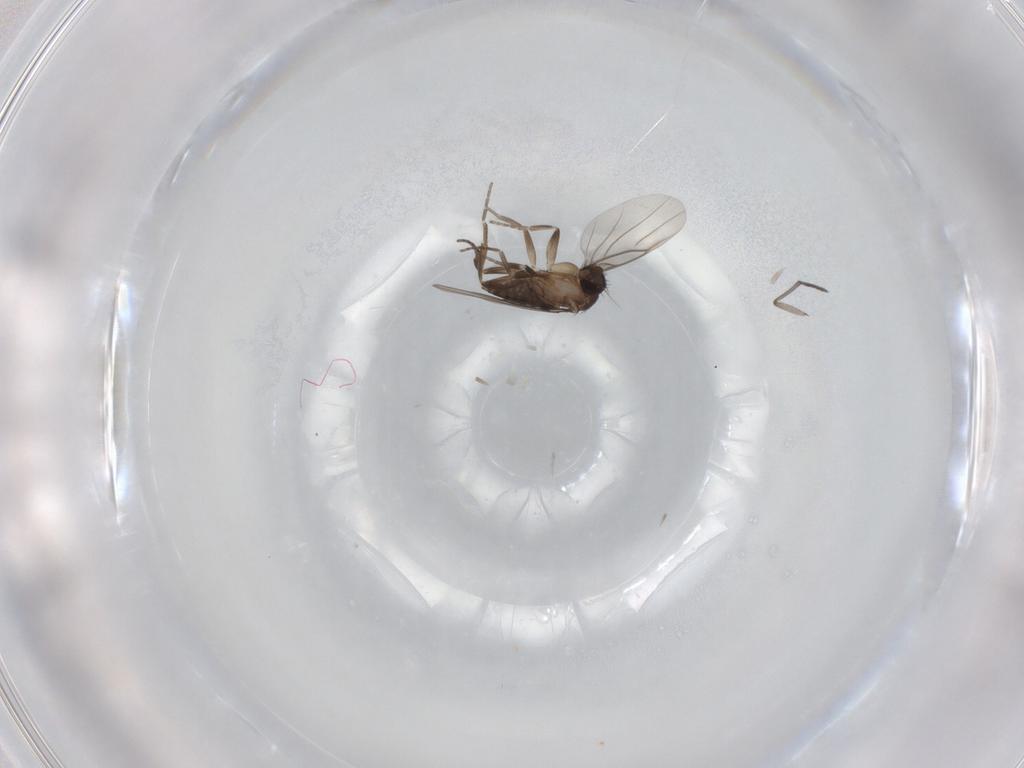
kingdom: Animalia
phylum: Arthropoda
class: Insecta
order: Diptera
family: Sciaridae
